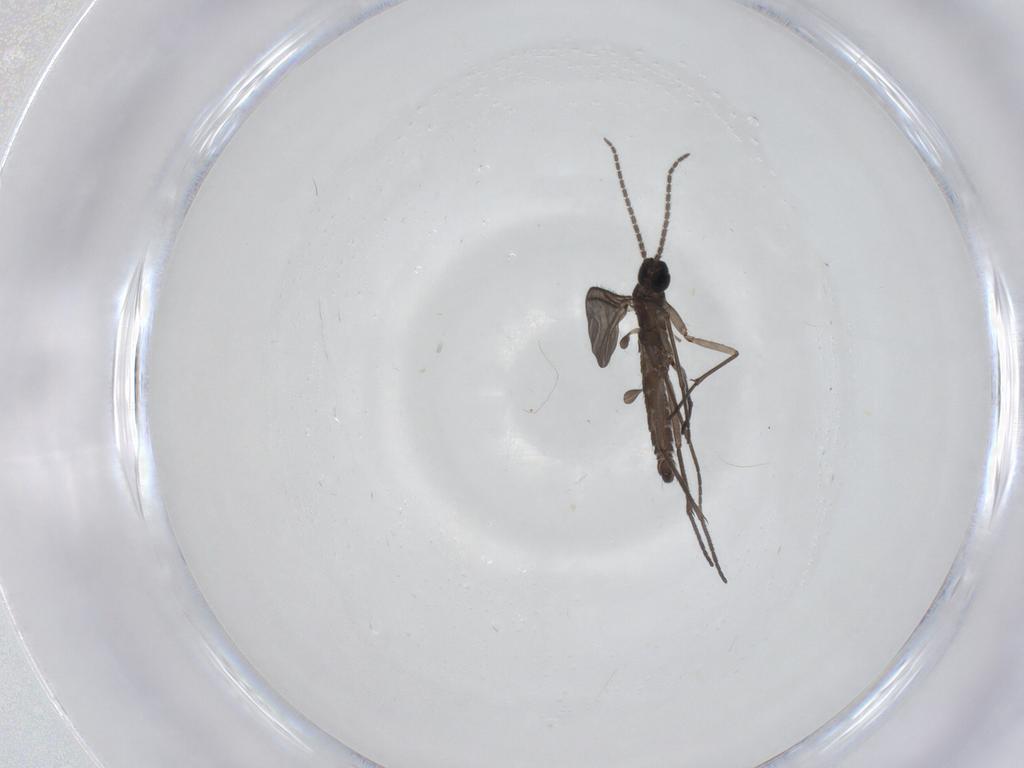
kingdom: Animalia
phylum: Arthropoda
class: Insecta
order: Diptera
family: Sciaridae
